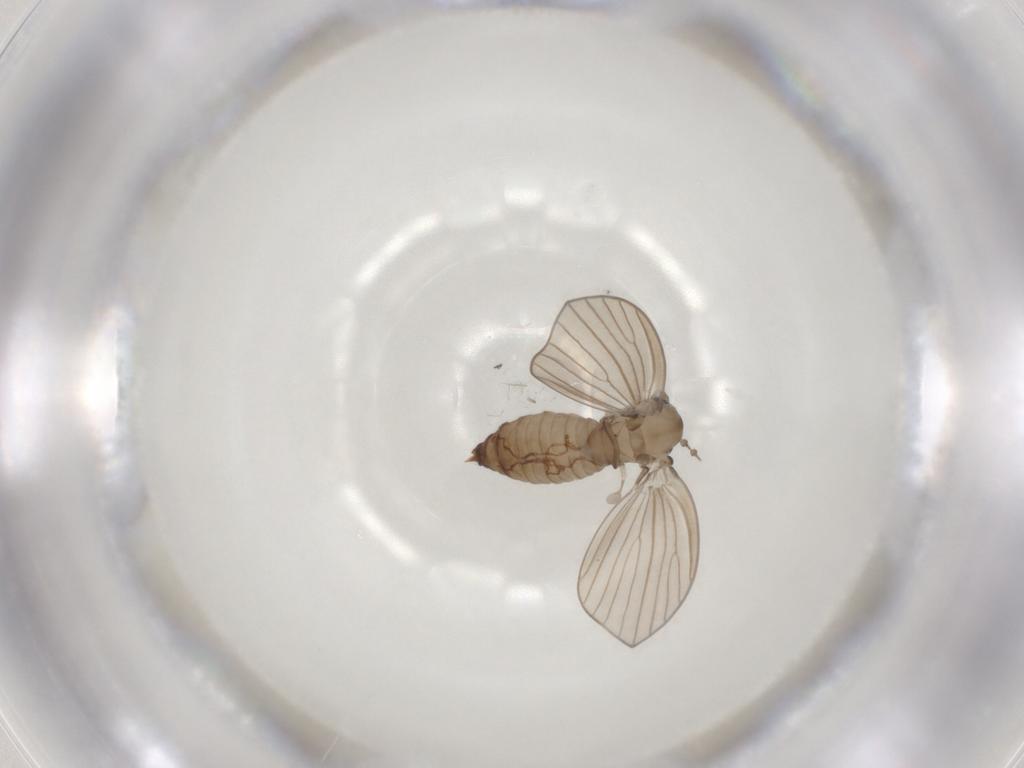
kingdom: Animalia
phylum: Arthropoda
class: Insecta
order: Diptera
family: Psychodidae
